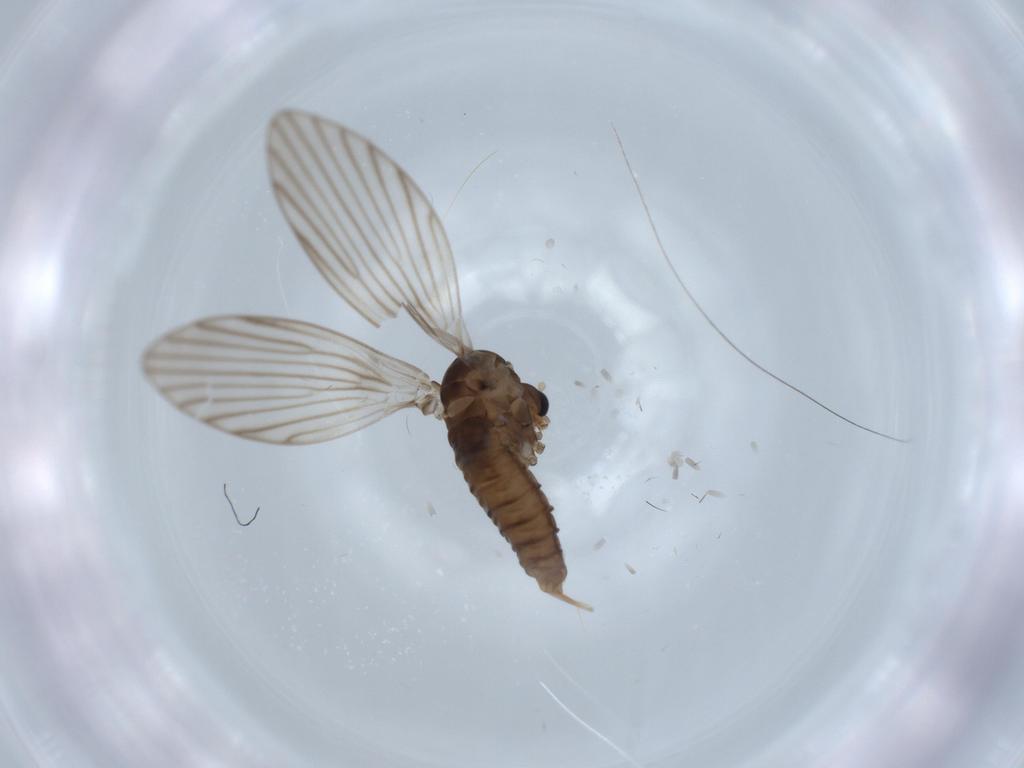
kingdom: Animalia
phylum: Arthropoda
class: Insecta
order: Diptera
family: Psychodidae
